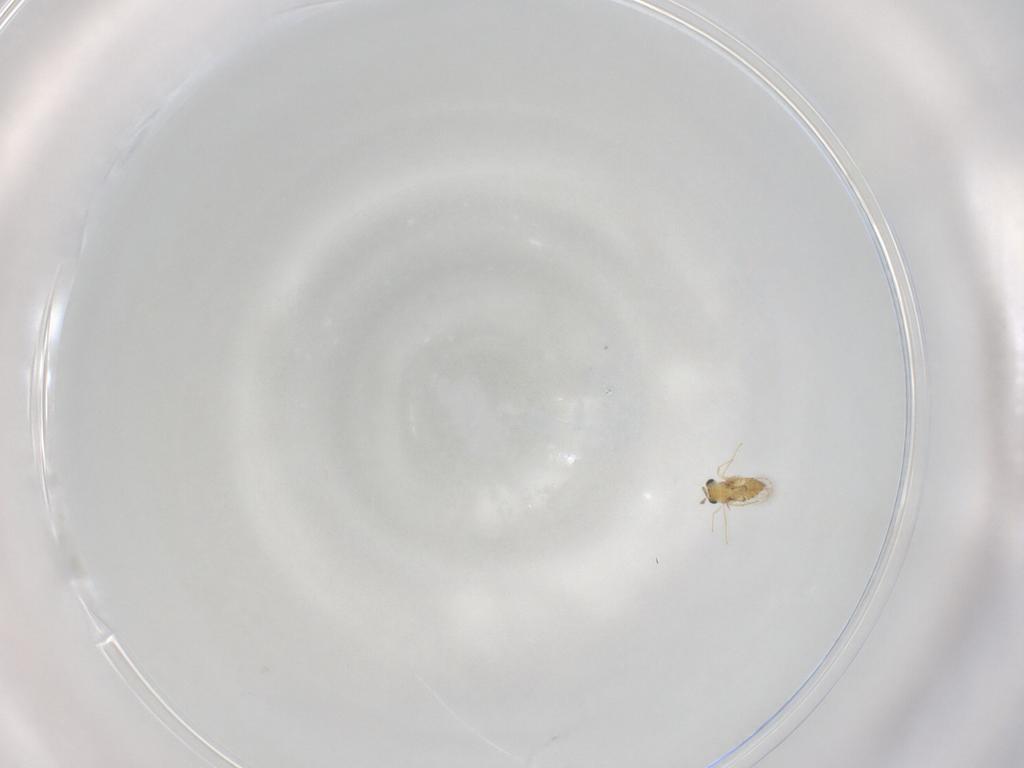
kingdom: Animalia
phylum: Arthropoda
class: Insecta
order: Hymenoptera
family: Trichogrammatidae
